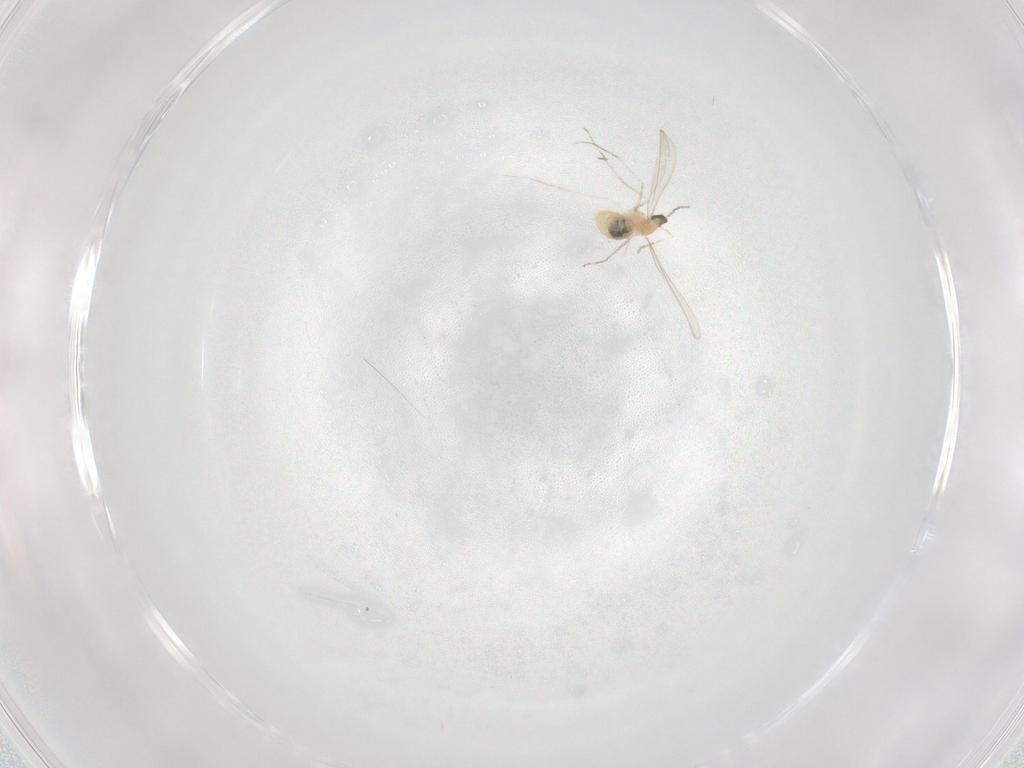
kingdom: Animalia
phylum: Arthropoda
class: Insecta
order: Diptera
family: Cecidomyiidae
